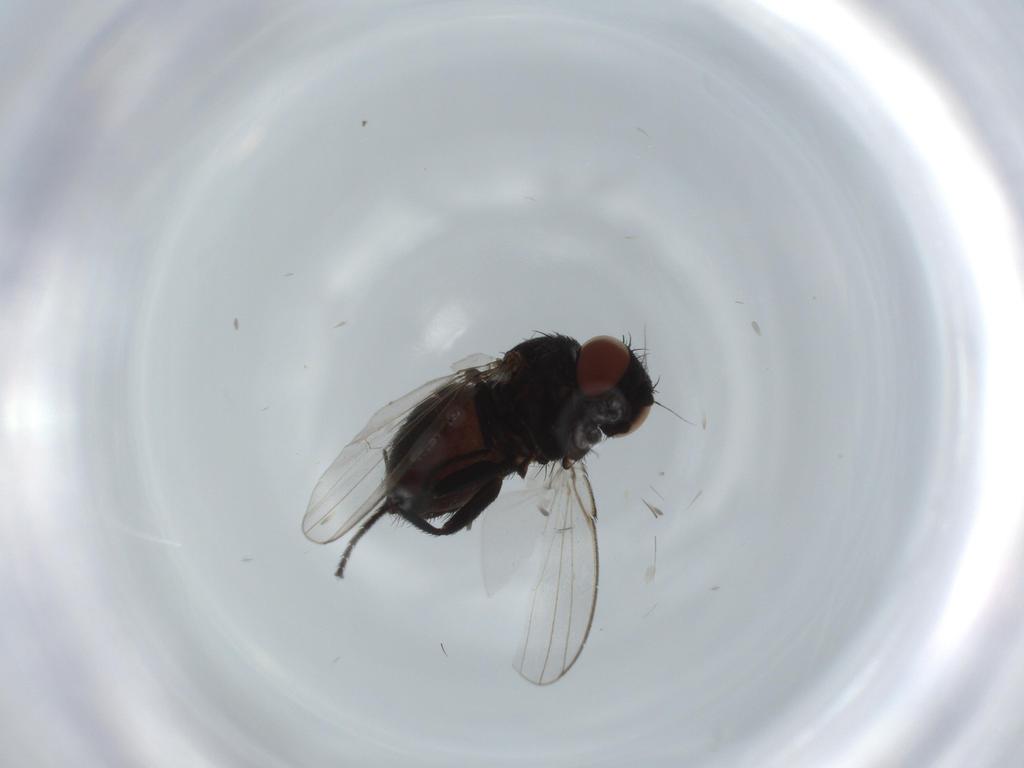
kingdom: Animalia
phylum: Arthropoda
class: Insecta
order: Diptera
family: Milichiidae
